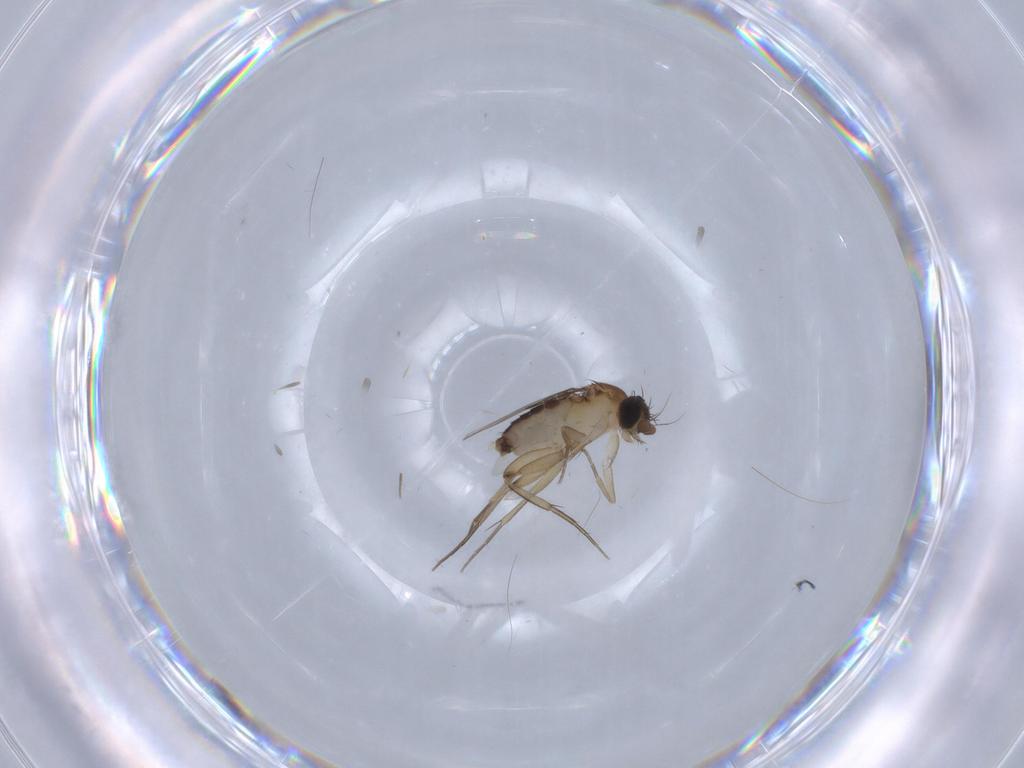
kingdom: Animalia
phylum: Arthropoda
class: Insecta
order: Diptera
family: Phoridae
